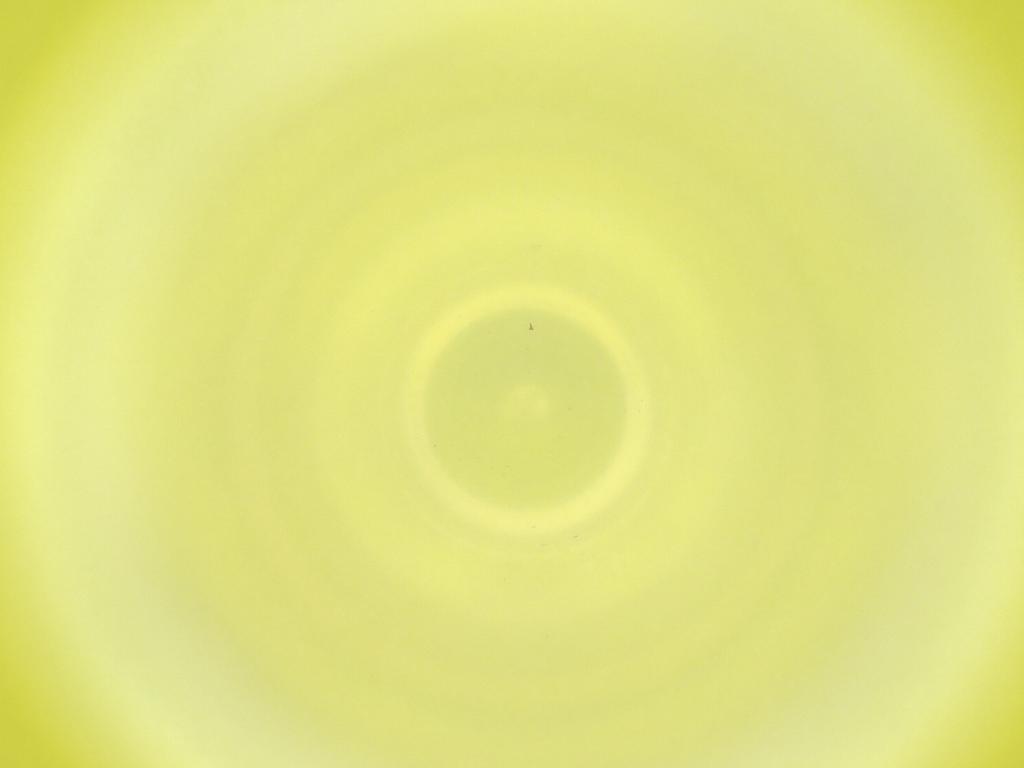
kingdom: Animalia
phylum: Arthropoda
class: Insecta
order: Diptera
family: Cecidomyiidae
